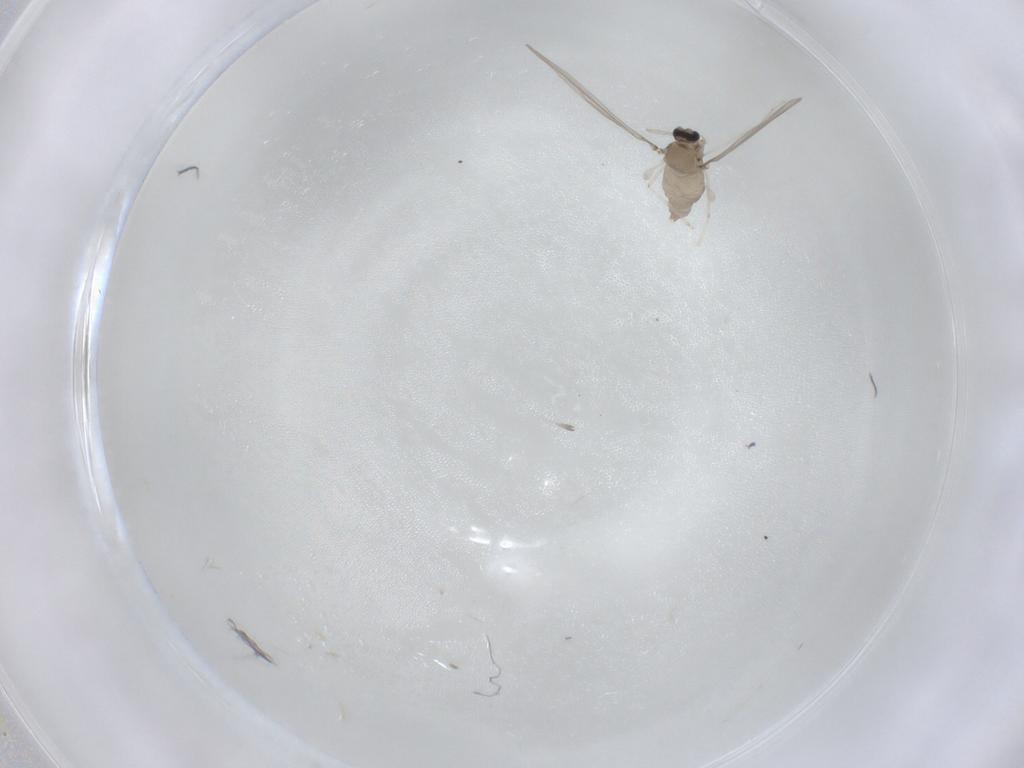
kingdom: Animalia
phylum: Arthropoda
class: Insecta
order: Diptera
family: Cecidomyiidae
